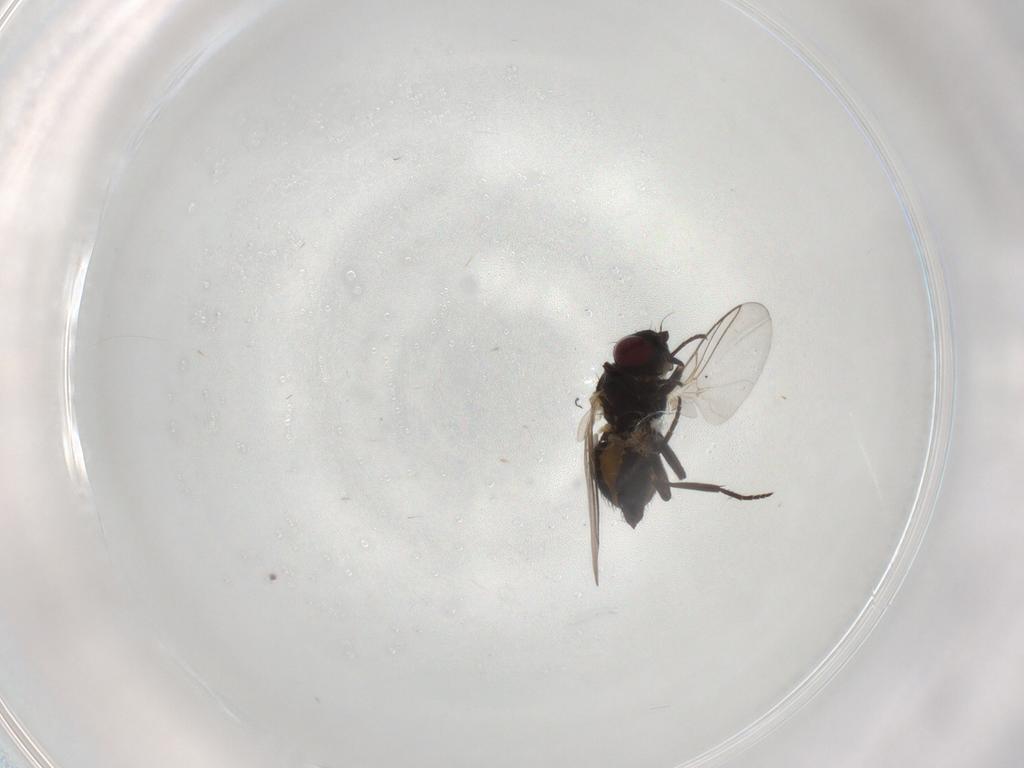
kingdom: Animalia
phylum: Arthropoda
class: Insecta
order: Diptera
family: Agromyzidae
